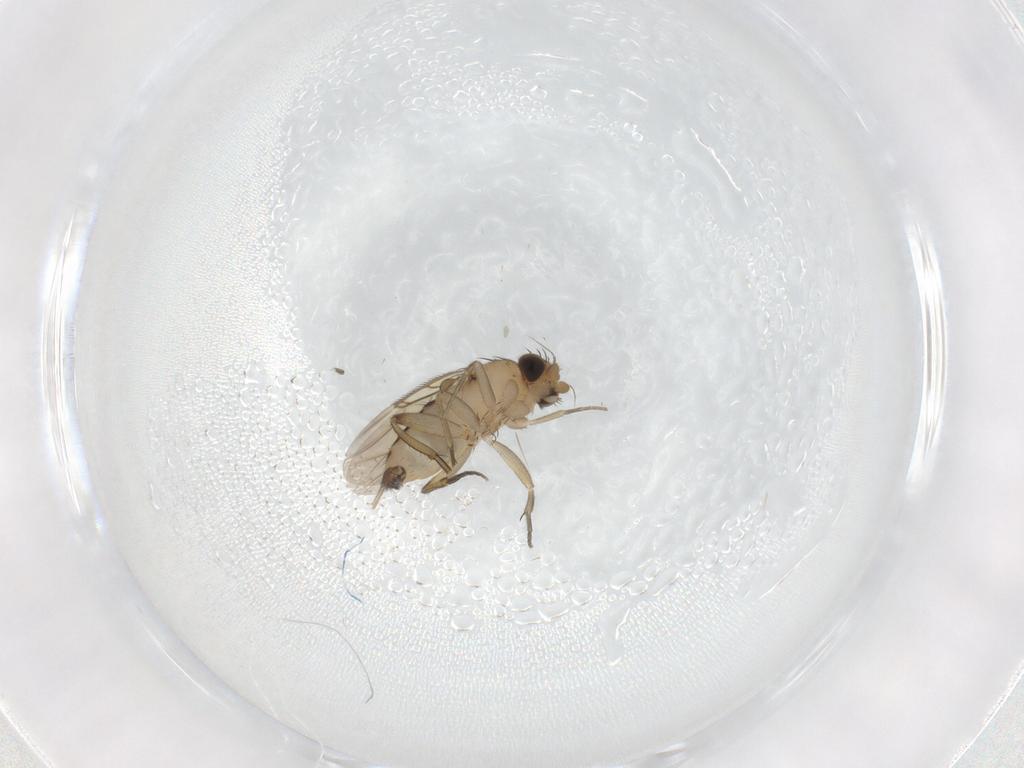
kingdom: Animalia
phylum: Arthropoda
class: Insecta
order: Diptera
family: Phoridae
